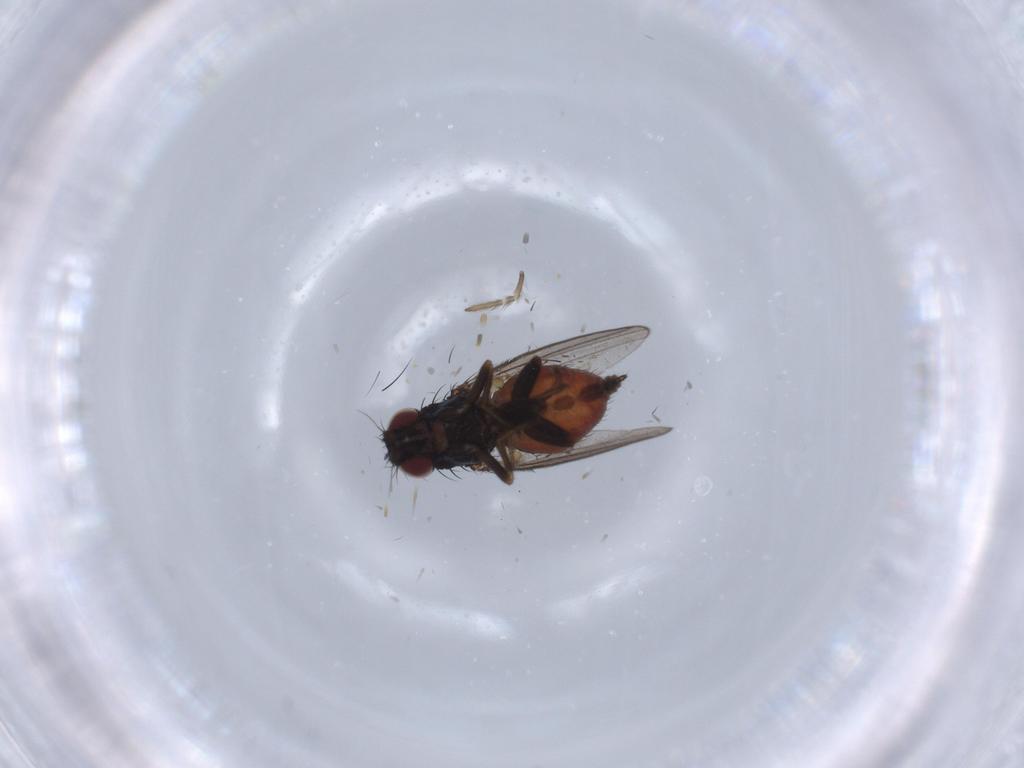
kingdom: Animalia
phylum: Arthropoda
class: Insecta
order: Diptera
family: Milichiidae
